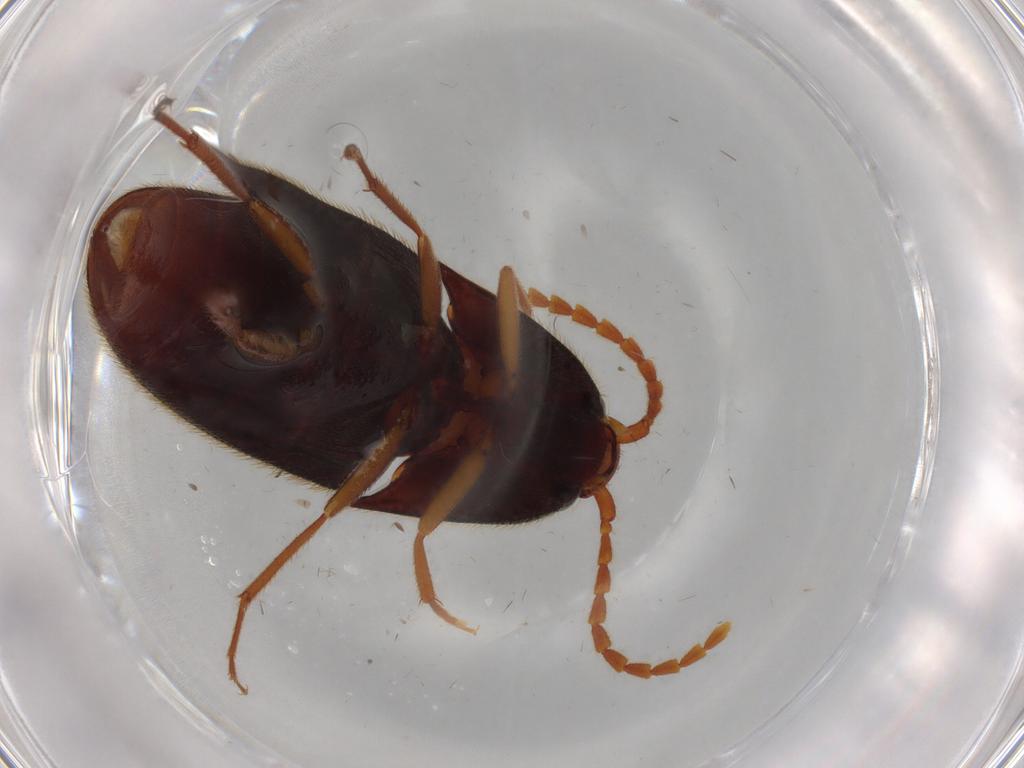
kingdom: Animalia
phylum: Arthropoda
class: Insecta
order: Coleoptera
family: Elateridae
